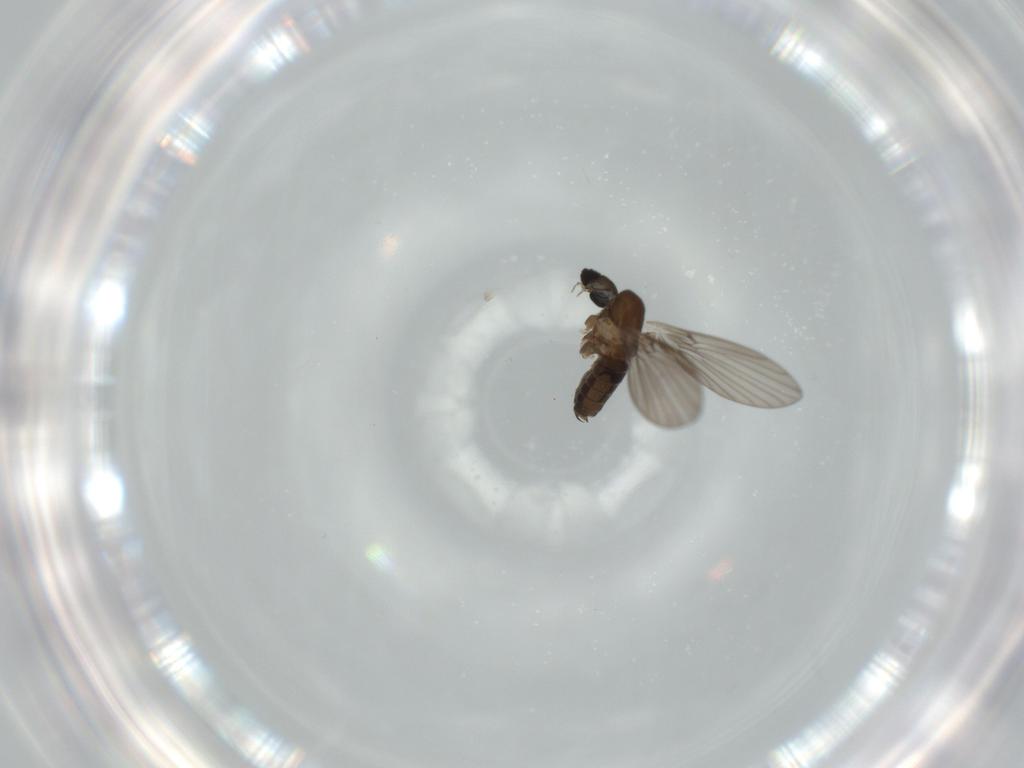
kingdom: Animalia
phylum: Arthropoda
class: Insecta
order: Diptera
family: Psychodidae
